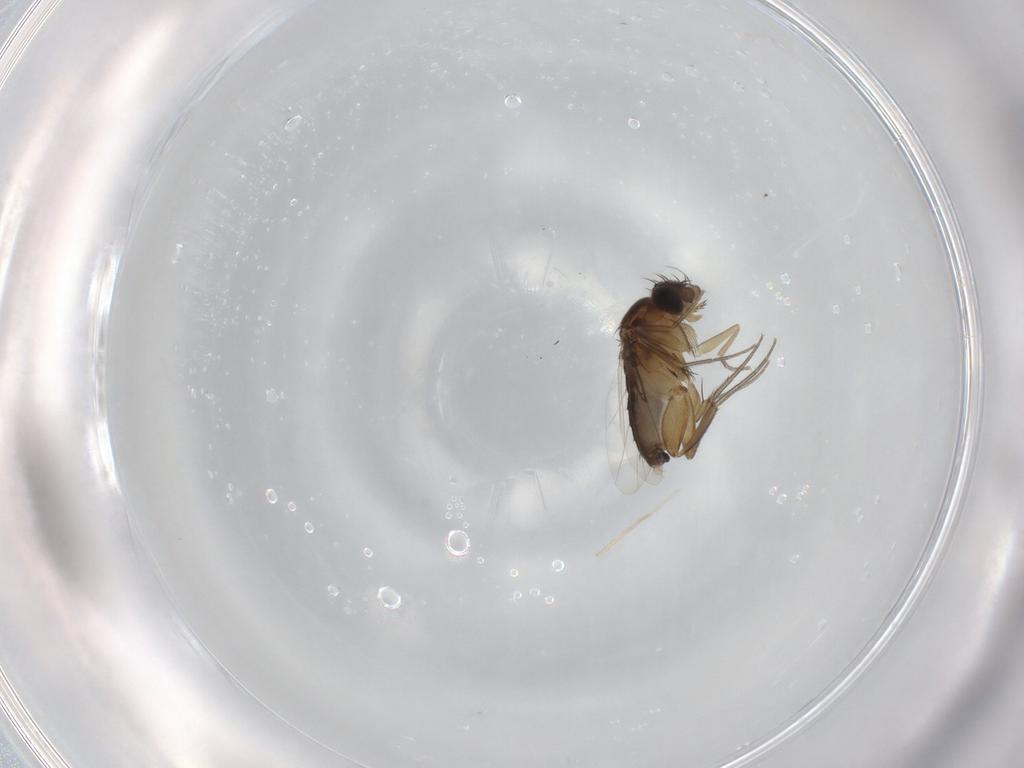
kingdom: Animalia
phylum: Arthropoda
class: Insecta
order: Diptera
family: Phoridae
